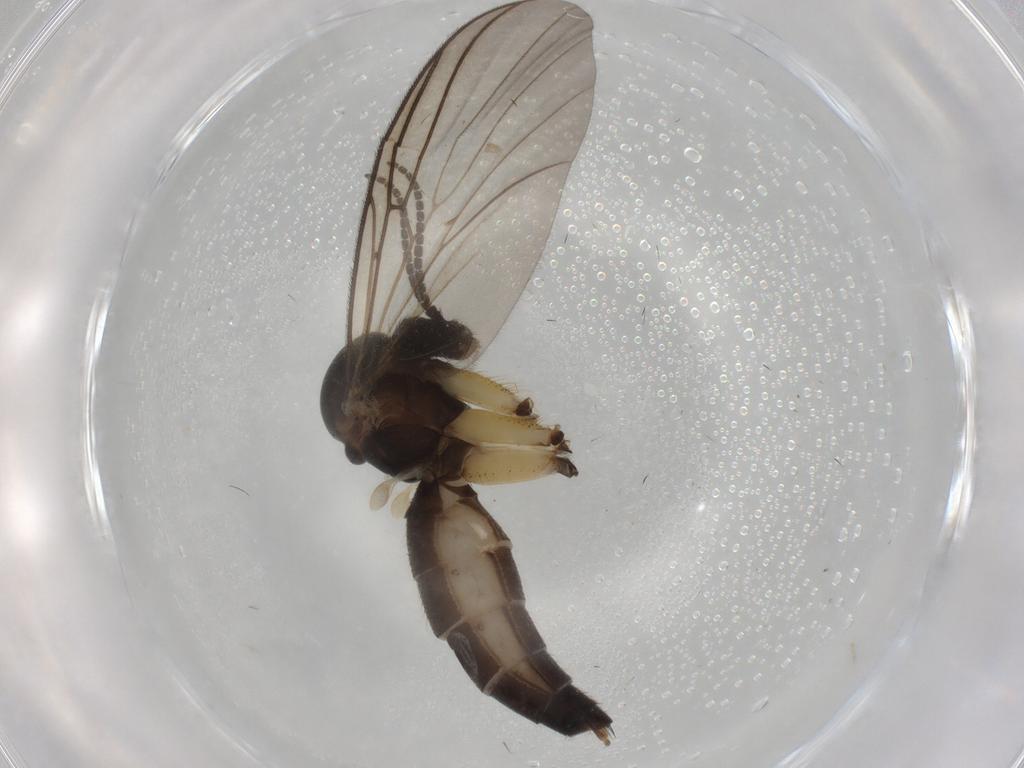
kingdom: Animalia
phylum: Arthropoda
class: Insecta
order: Diptera
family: Mycetophilidae
